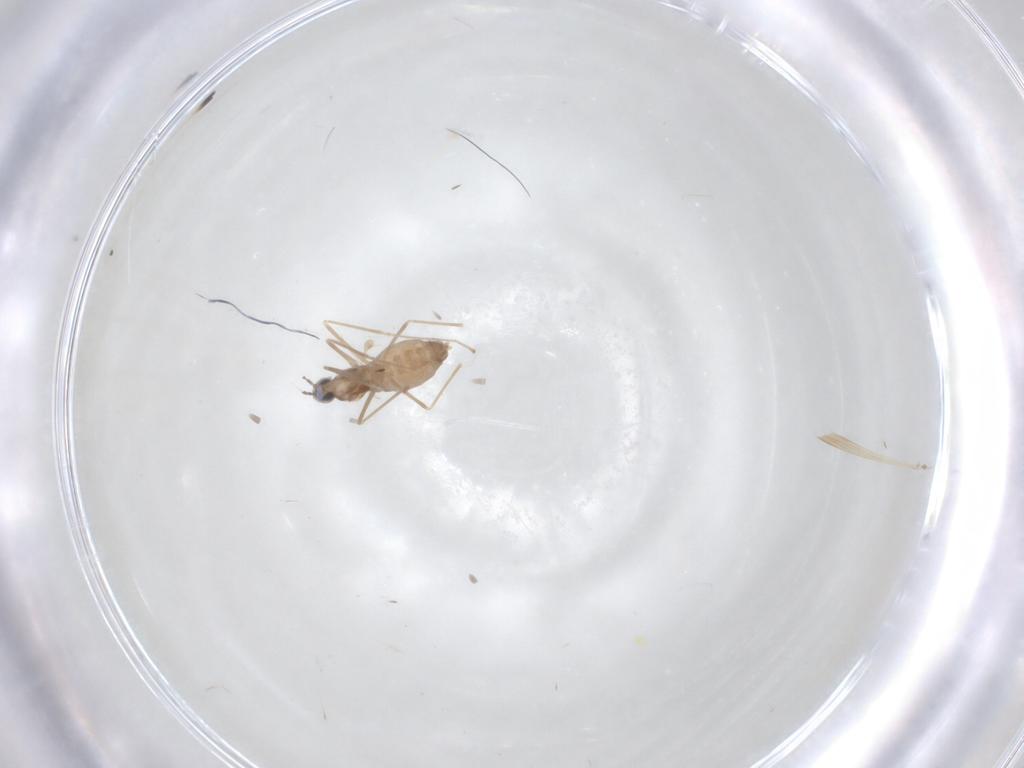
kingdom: Animalia
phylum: Arthropoda
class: Insecta
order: Diptera
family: Cecidomyiidae
